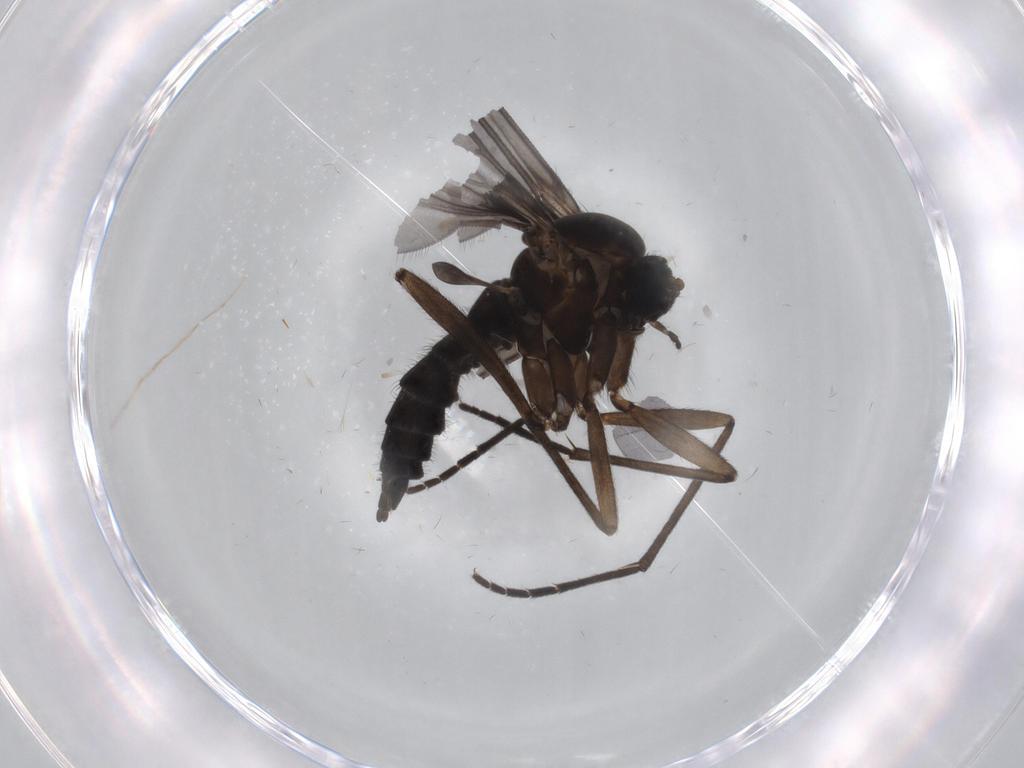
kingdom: Animalia
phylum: Arthropoda
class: Insecta
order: Diptera
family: Sciaridae
